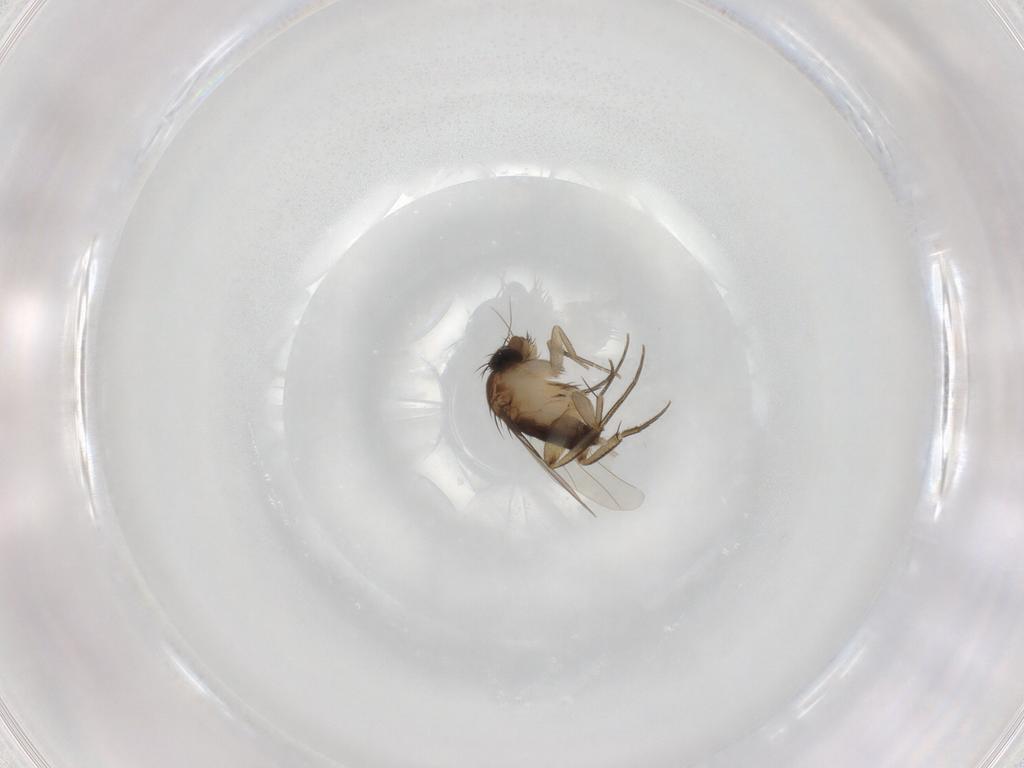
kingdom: Animalia
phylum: Arthropoda
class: Insecta
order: Diptera
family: Phoridae
